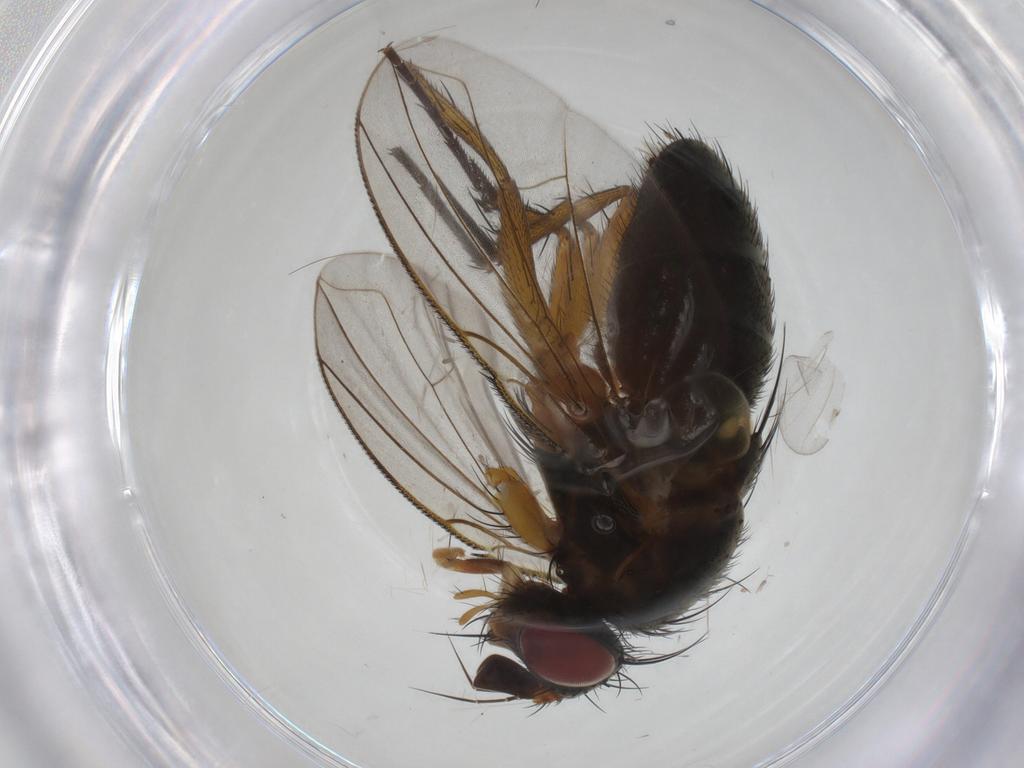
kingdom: Animalia
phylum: Arthropoda
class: Insecta
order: Diptera
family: Anthomyiidae
